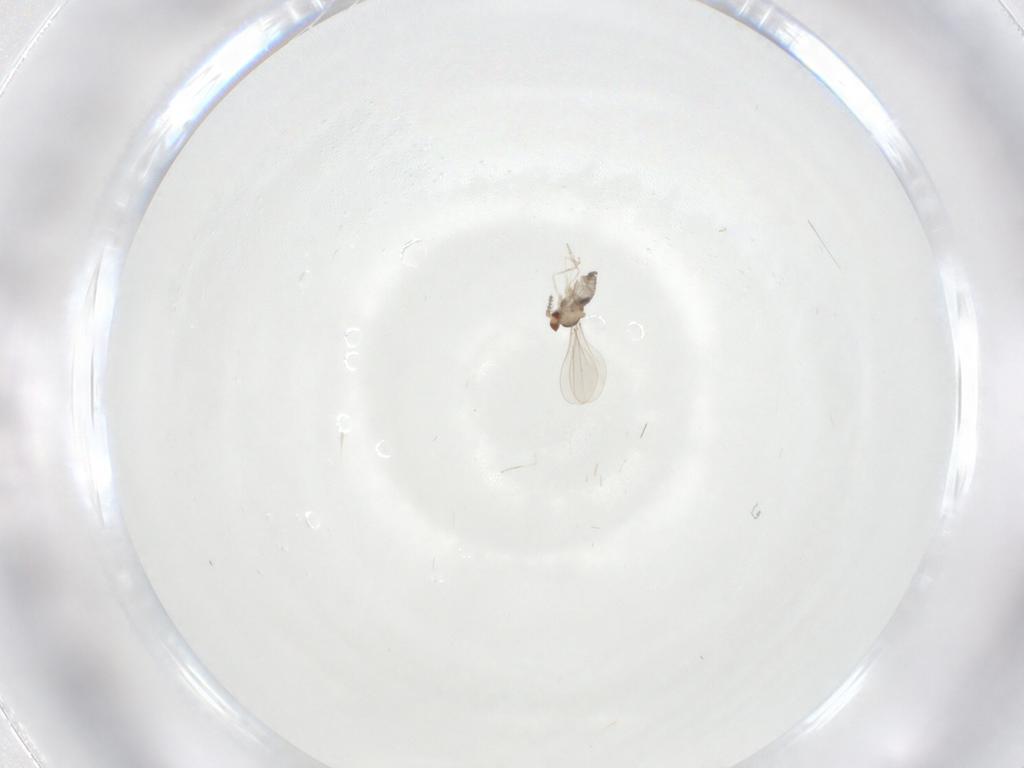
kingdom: Animalia
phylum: Arthropoda
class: Insecta
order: Diptera
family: Cecidomyiidae
